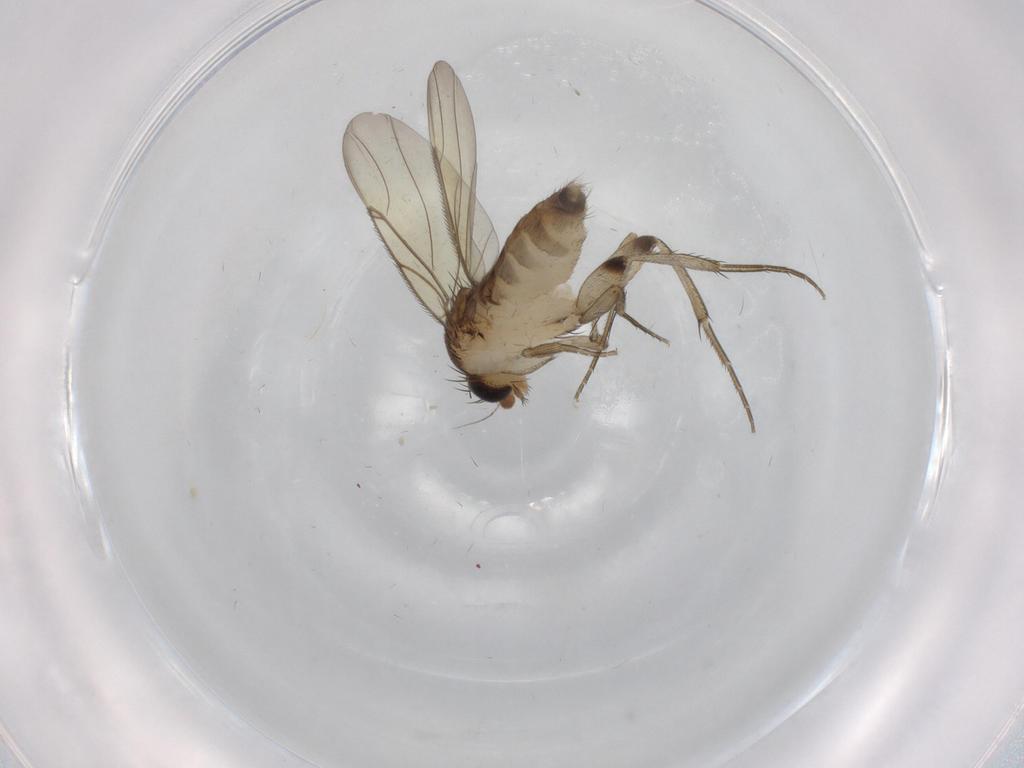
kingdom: Animalia
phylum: Arthropoda
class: Insecta
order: Diptera
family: Phoridae
